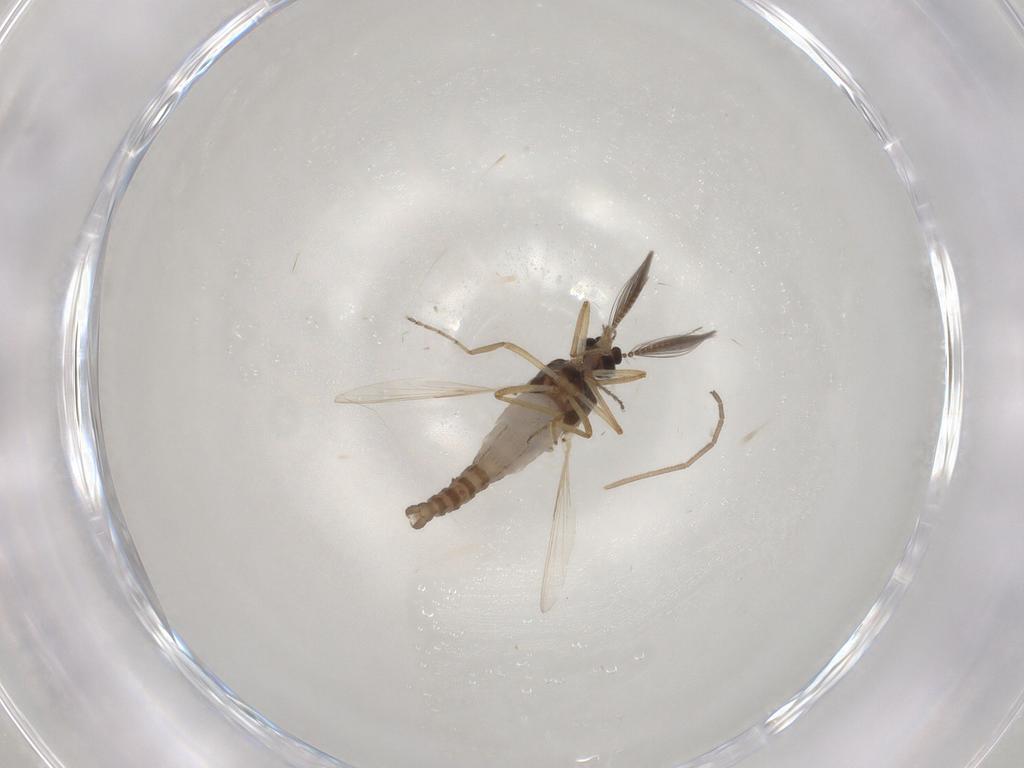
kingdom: Animalia
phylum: Arthropoda
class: Insecta
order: Diptera
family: Ceratopogonidae
